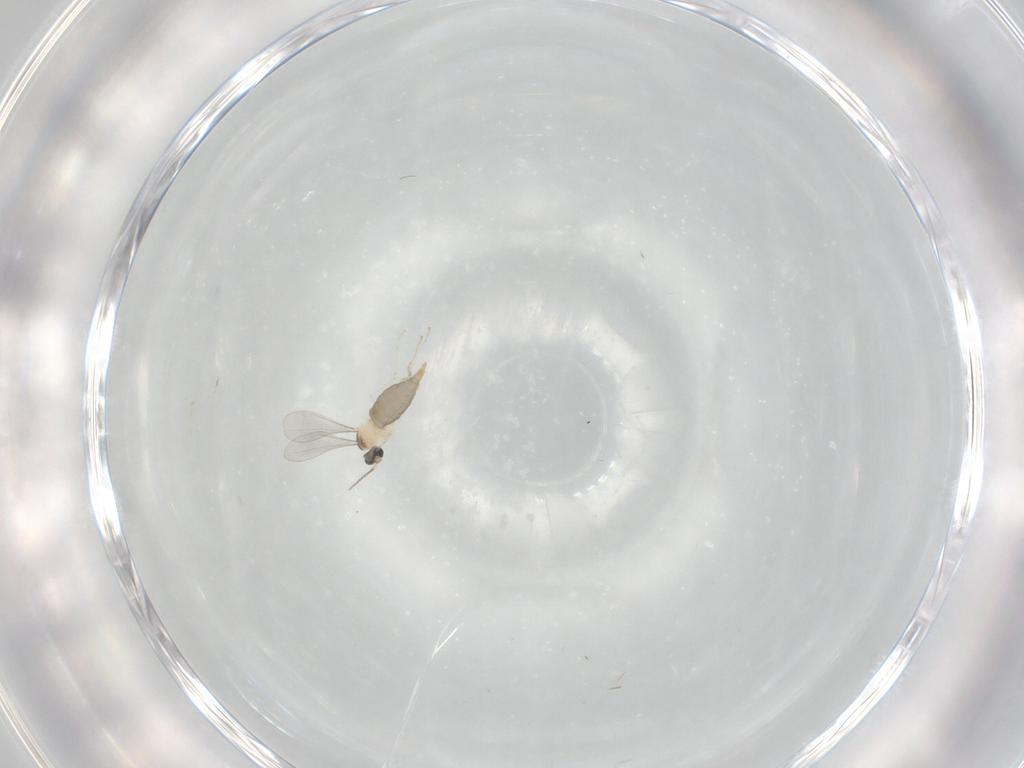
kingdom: Animalia
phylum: Arthropoda
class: Insecta
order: Diptera
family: Cecidomyiidae
